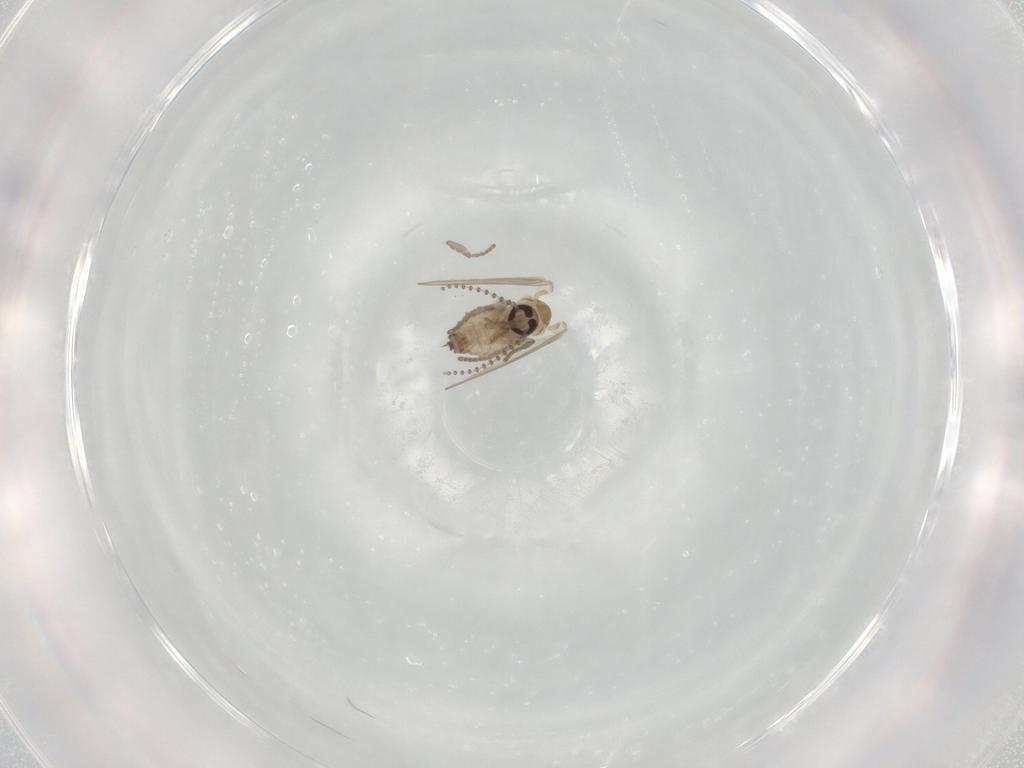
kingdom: Animalia
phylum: Arthropoda
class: Insecta
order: Diptera
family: Psychodidae
